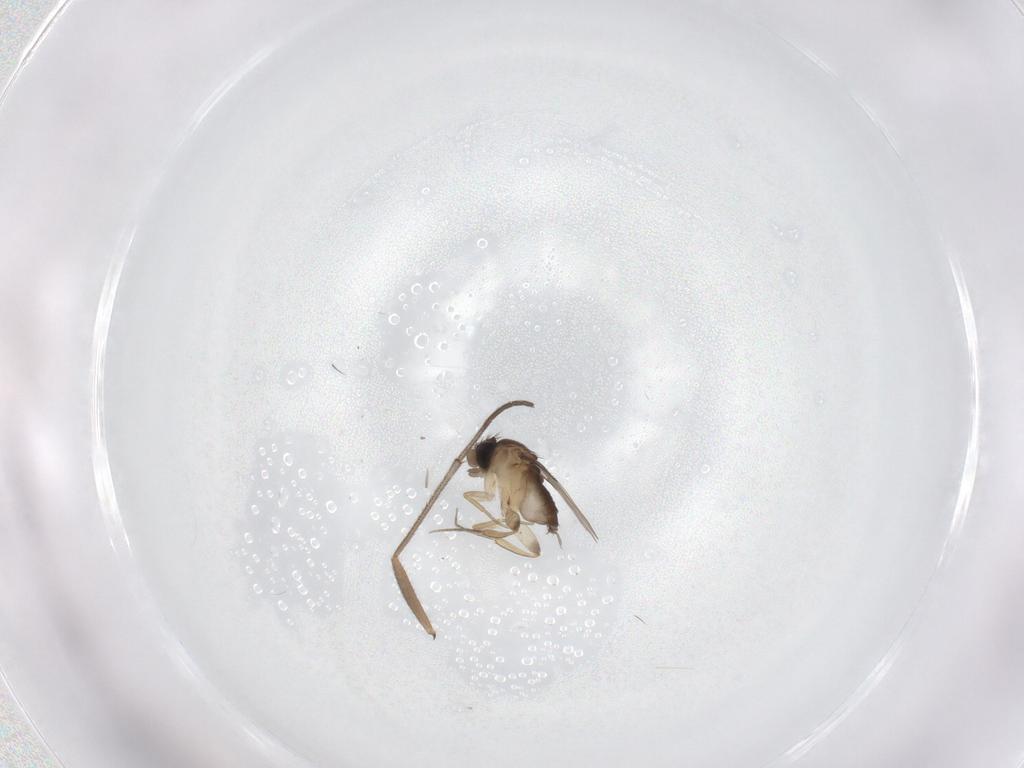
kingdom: Animalia
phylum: Arthropoda
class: Insecta
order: Diptera
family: Phoridae
